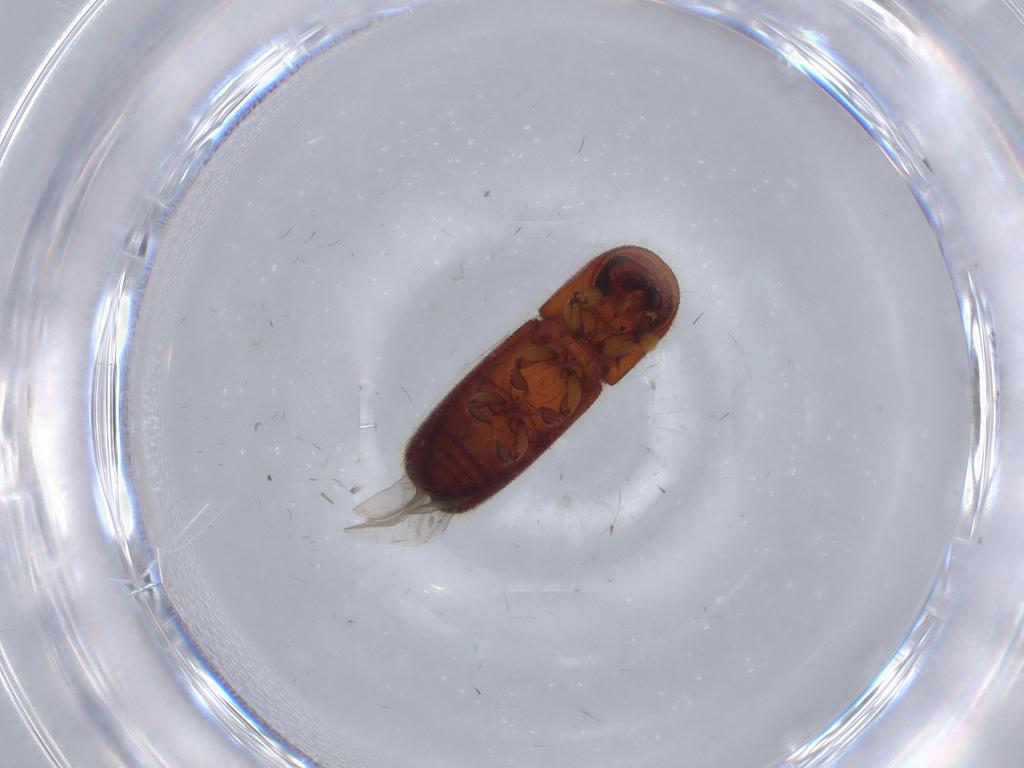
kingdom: Animalia
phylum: Arthropoda
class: Insecta
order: Coleoptera
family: Curculionidae
